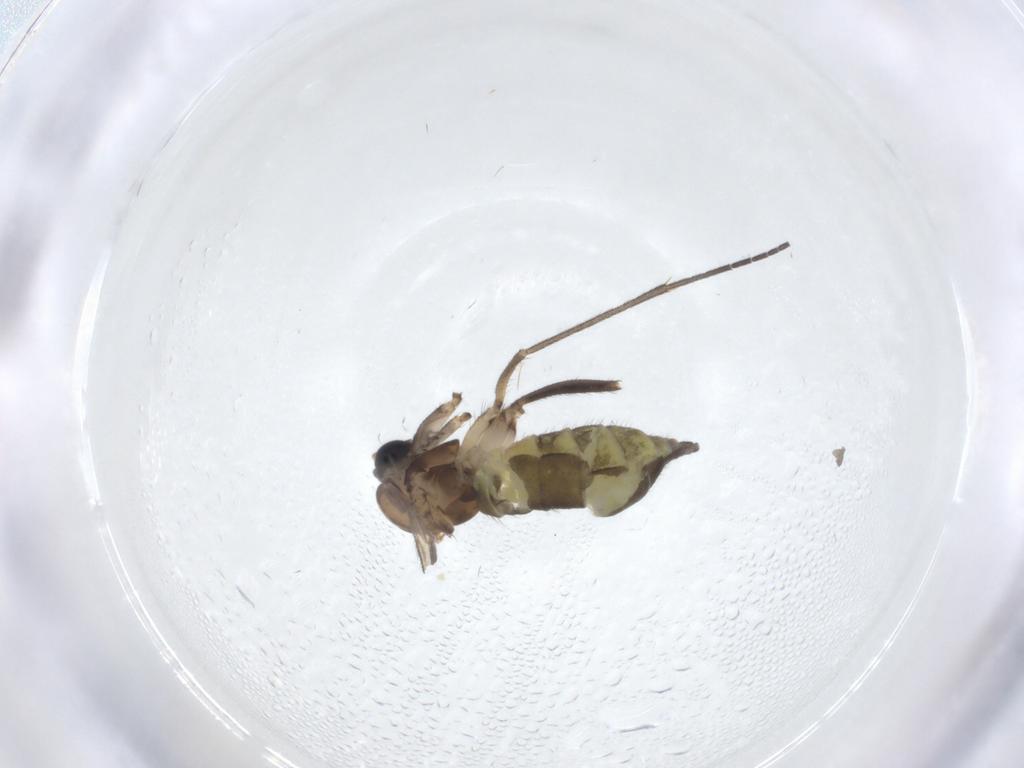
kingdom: Animalia
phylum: Arthropoda
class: Insecta
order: Diptera
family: Sciaridae
